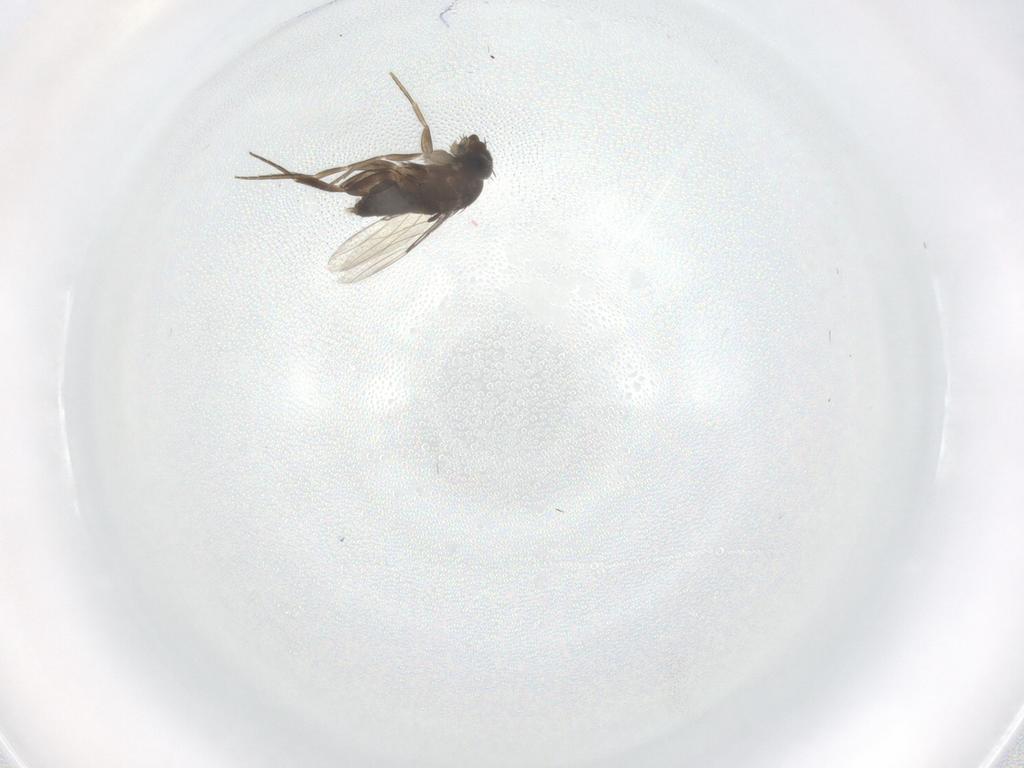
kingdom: Animalia
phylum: Arthropoda
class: Insecta
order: Diptera
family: Phoridae
